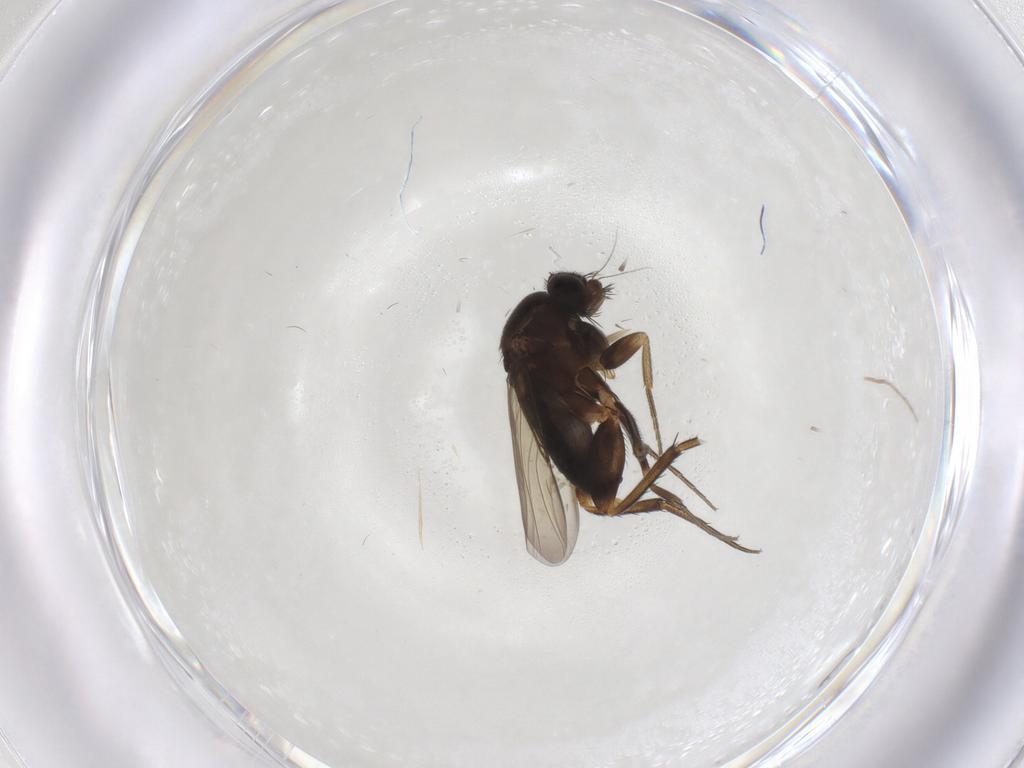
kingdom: Animalia
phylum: Arthropoda
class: Insecta
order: Diptera
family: Phoridae
